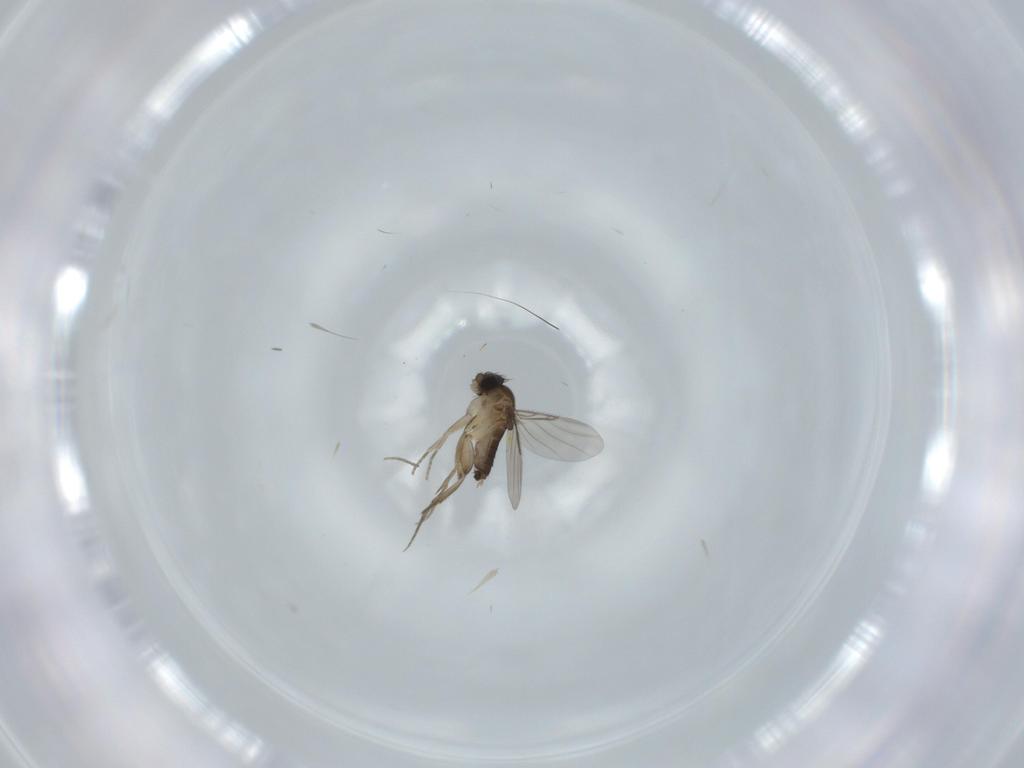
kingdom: Animalia
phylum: Arthropoda
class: Insecta
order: Diptera
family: Phoridae
